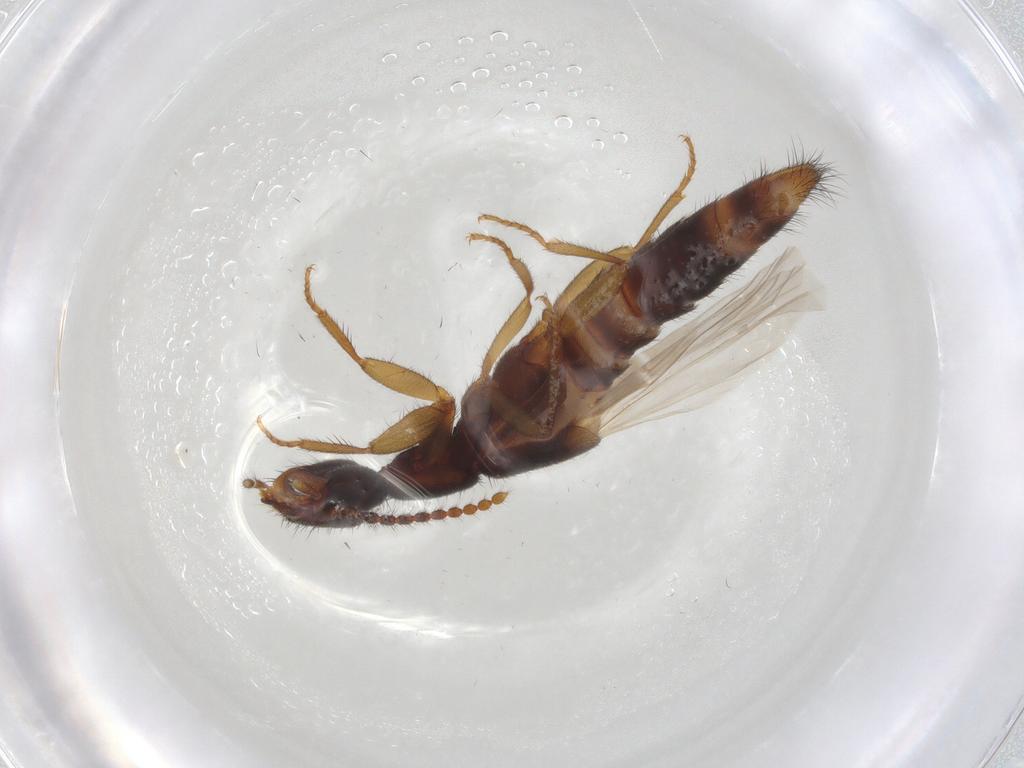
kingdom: Animalia
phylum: Arthropoda
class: Insecta
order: Coleoptera
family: Staphylinidae
